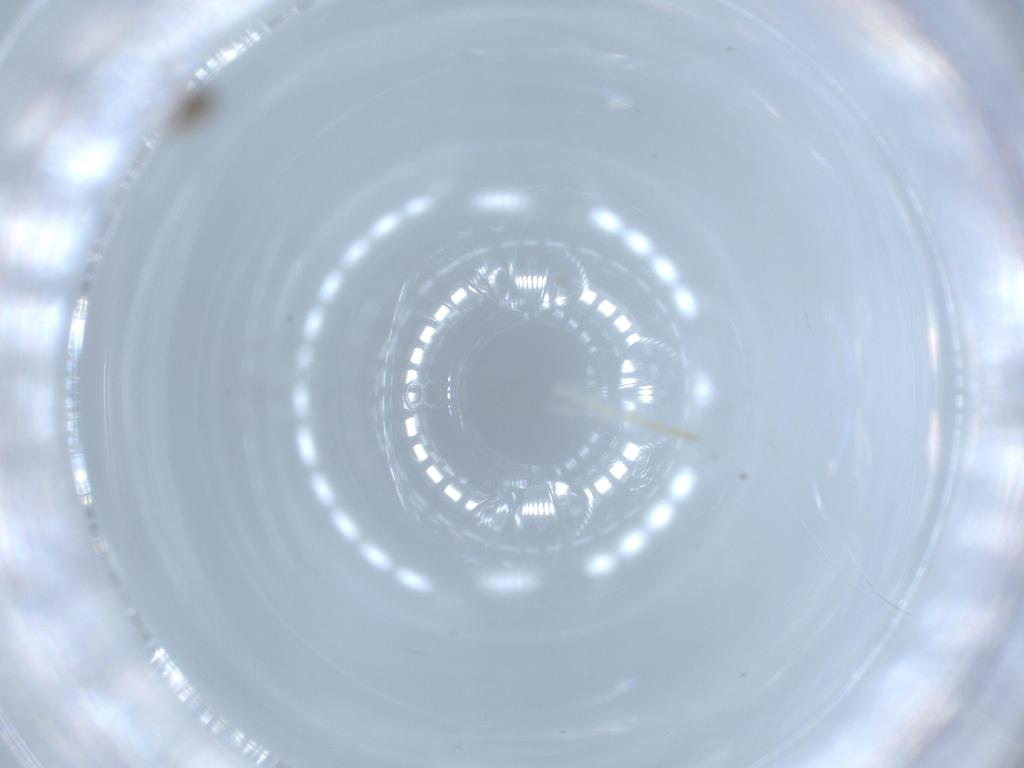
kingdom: Animalia
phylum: Arthropoda
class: Insecta
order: Diptera
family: Cecidomyiidae
